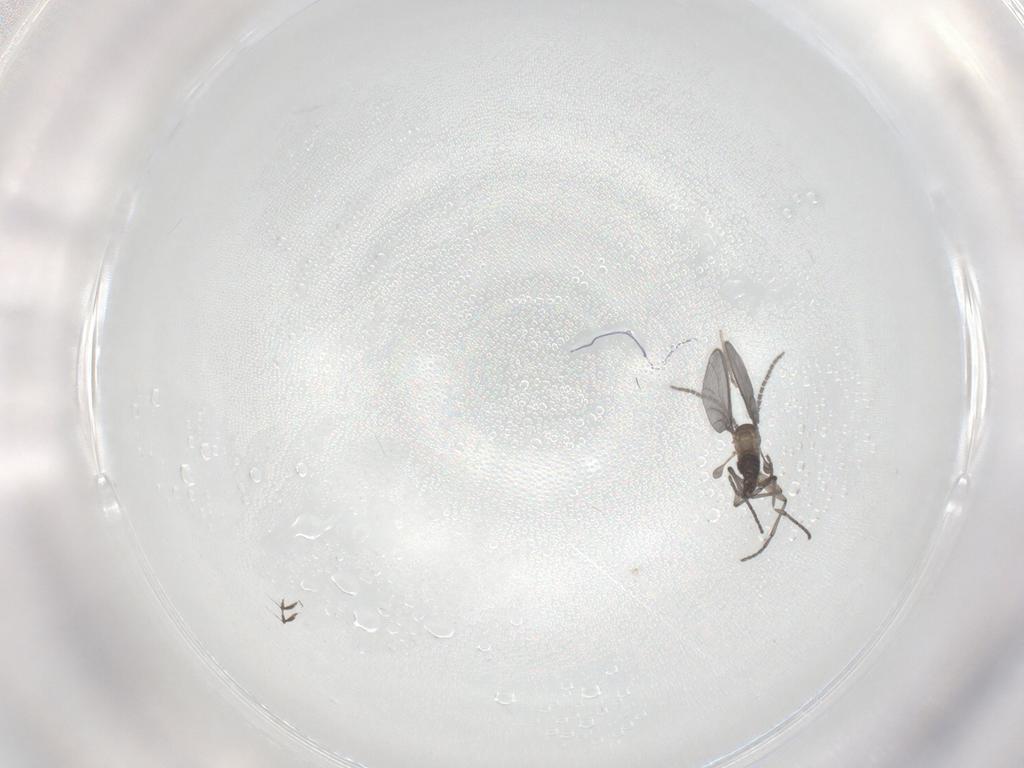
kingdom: Animalia
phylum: Arthropoda
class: Insecta
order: Diptera
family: Sciaridae
